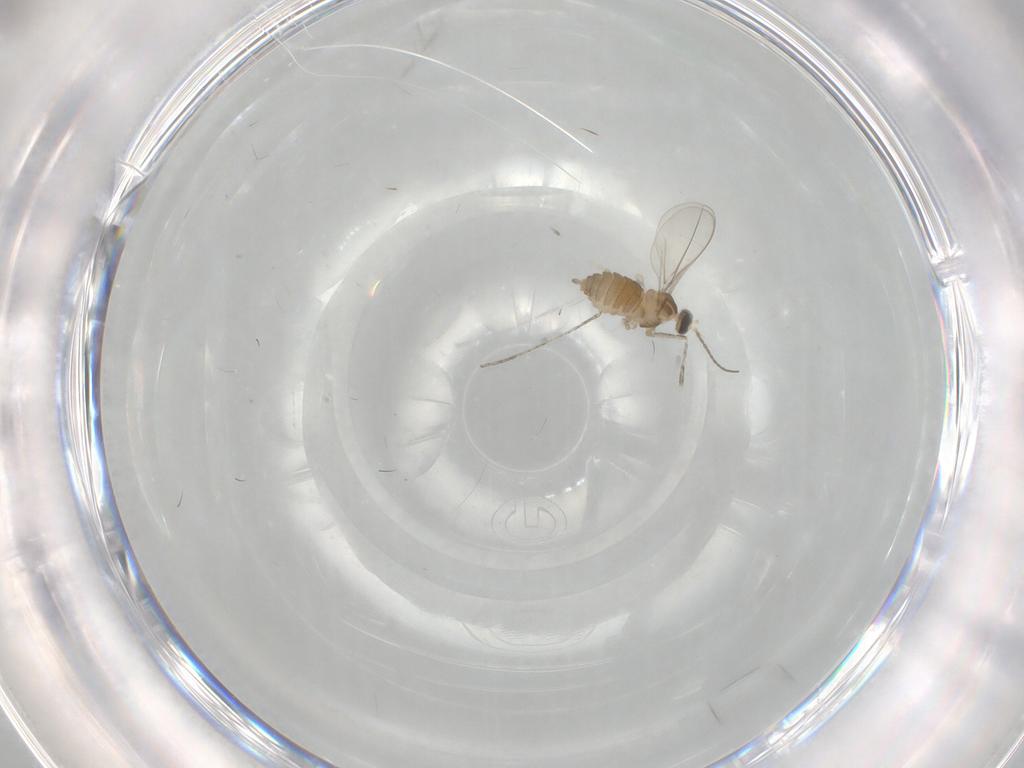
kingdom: Animalia
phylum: Arthropoda
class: Insecta
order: Diptera
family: Cecidomyiidae
